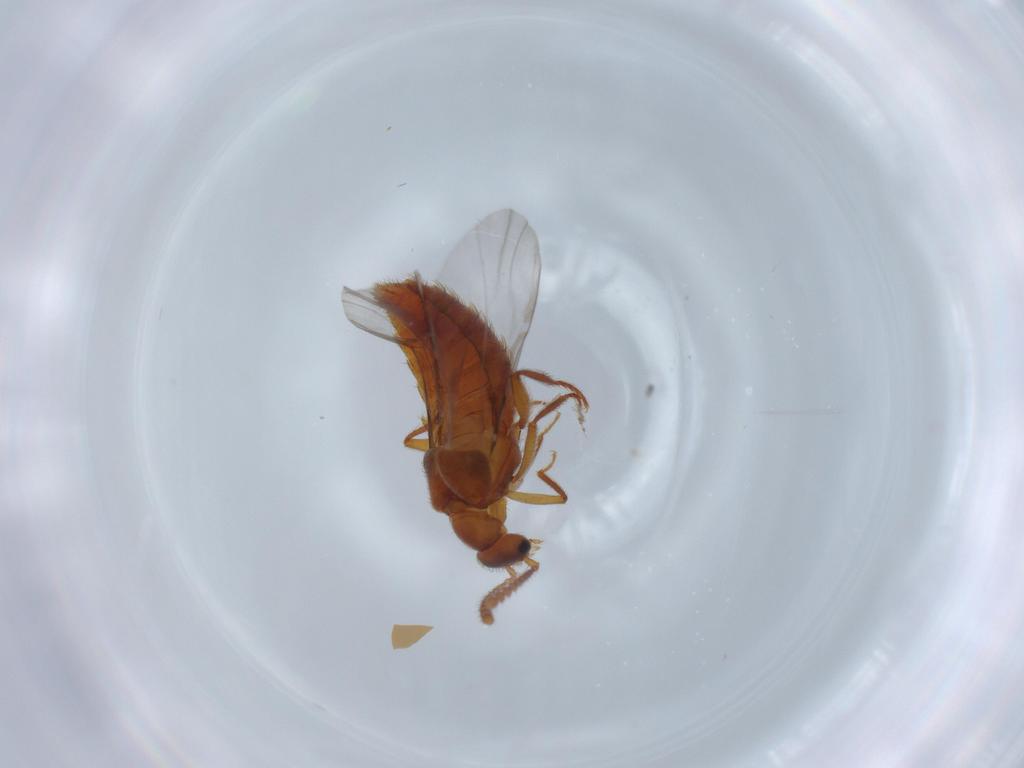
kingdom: Animalia
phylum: Arthropoda
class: Insecta
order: Coleoptera
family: Staphylinidae
